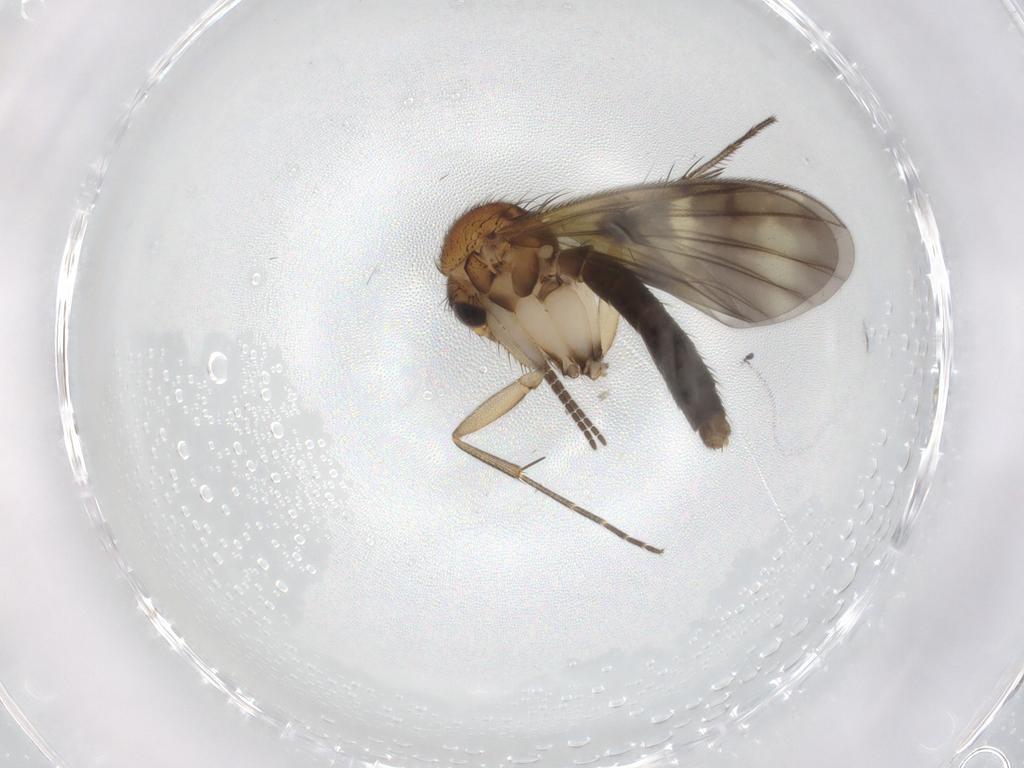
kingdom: Animalia
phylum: Arthropoda
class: Insecta
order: Diptera
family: Mycetophilidae
